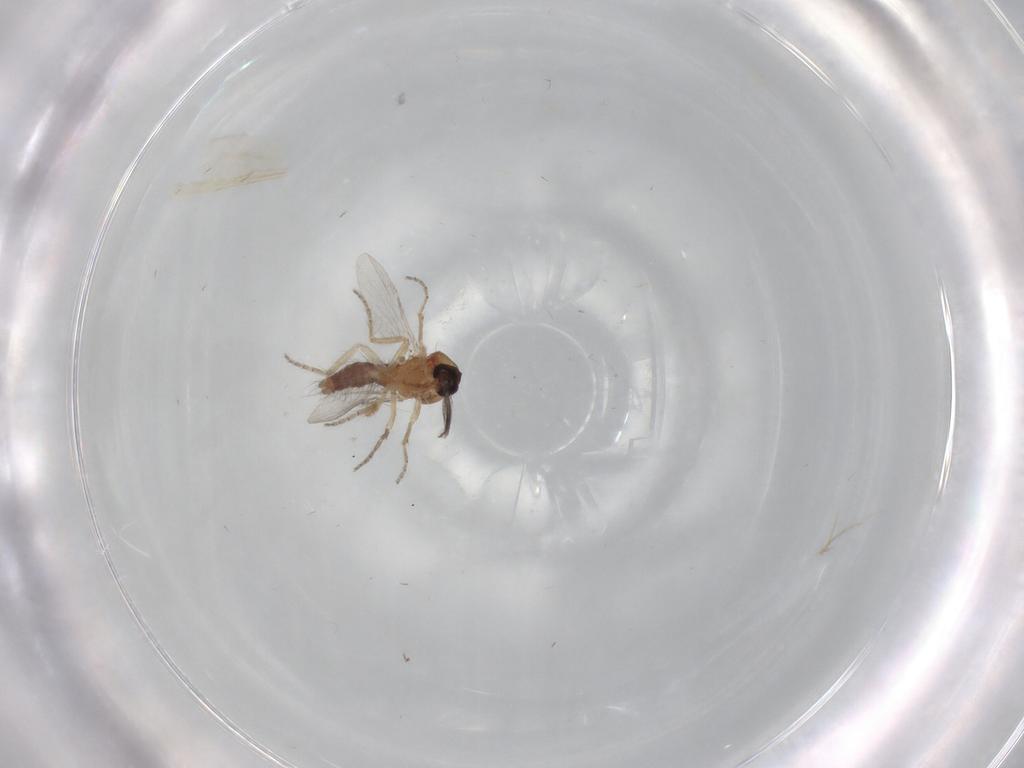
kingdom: Animalia
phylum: Arthropoda
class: Insecta
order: Diptera
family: Ceratopogonidae
